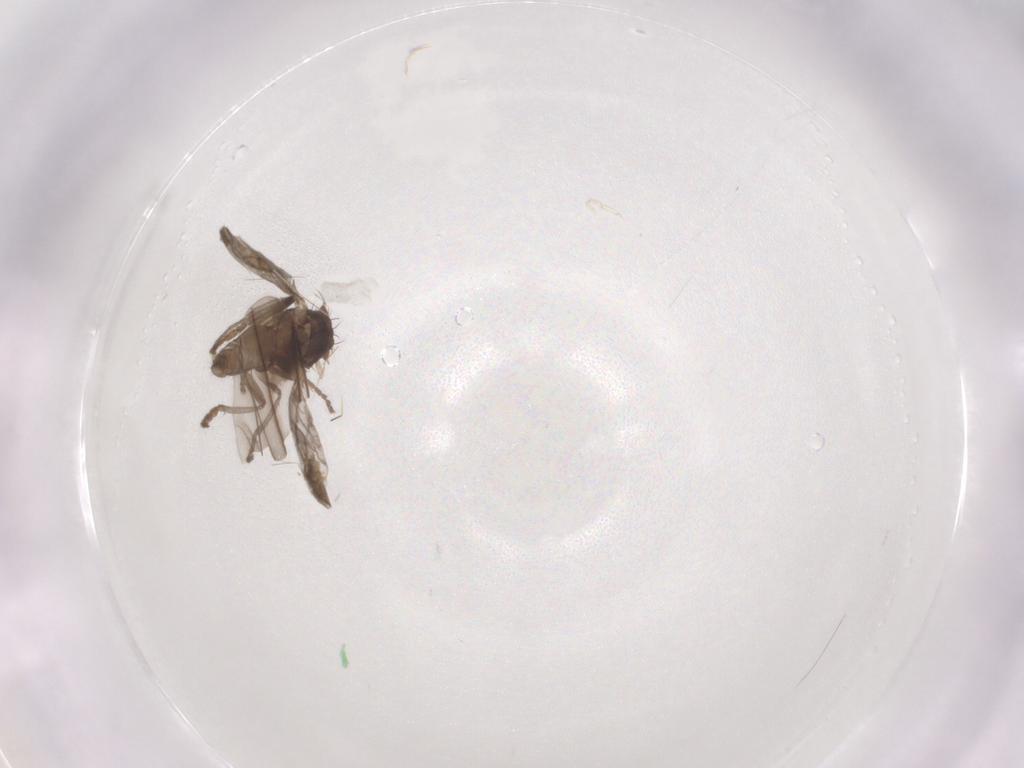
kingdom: Animalia
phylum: Arthropoda
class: Insecta
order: Diptera
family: Sphaeroceridae
